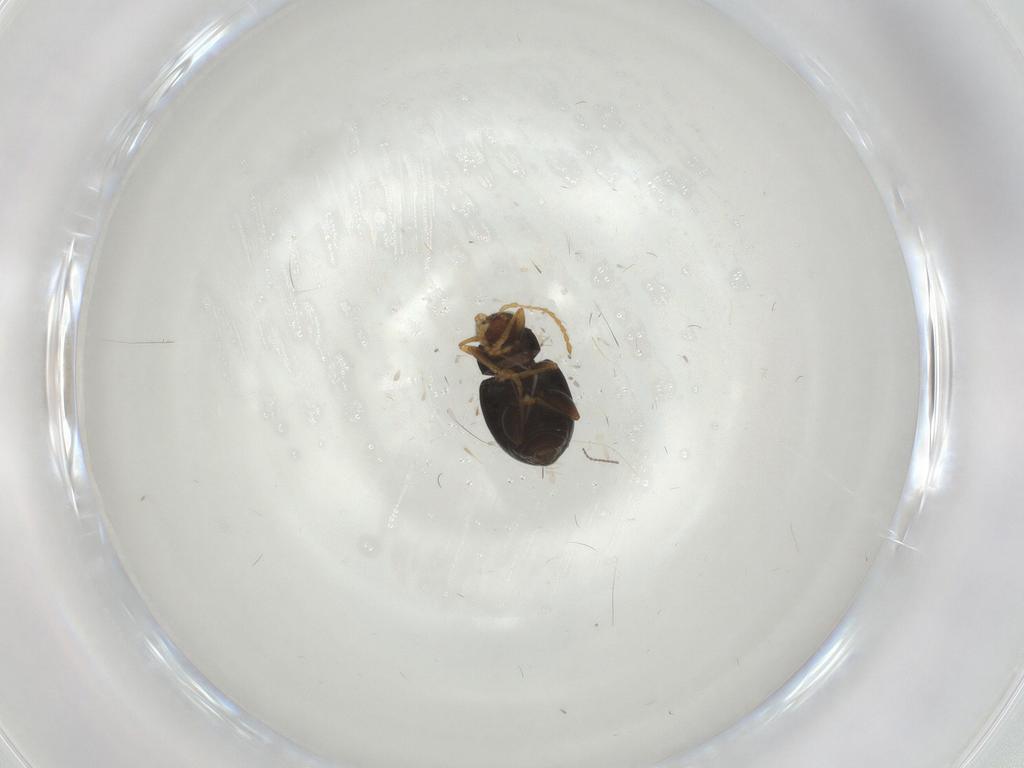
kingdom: Animalia
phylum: Arthropoda
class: Insecta
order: Coleoptera
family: Chrysomelidae
